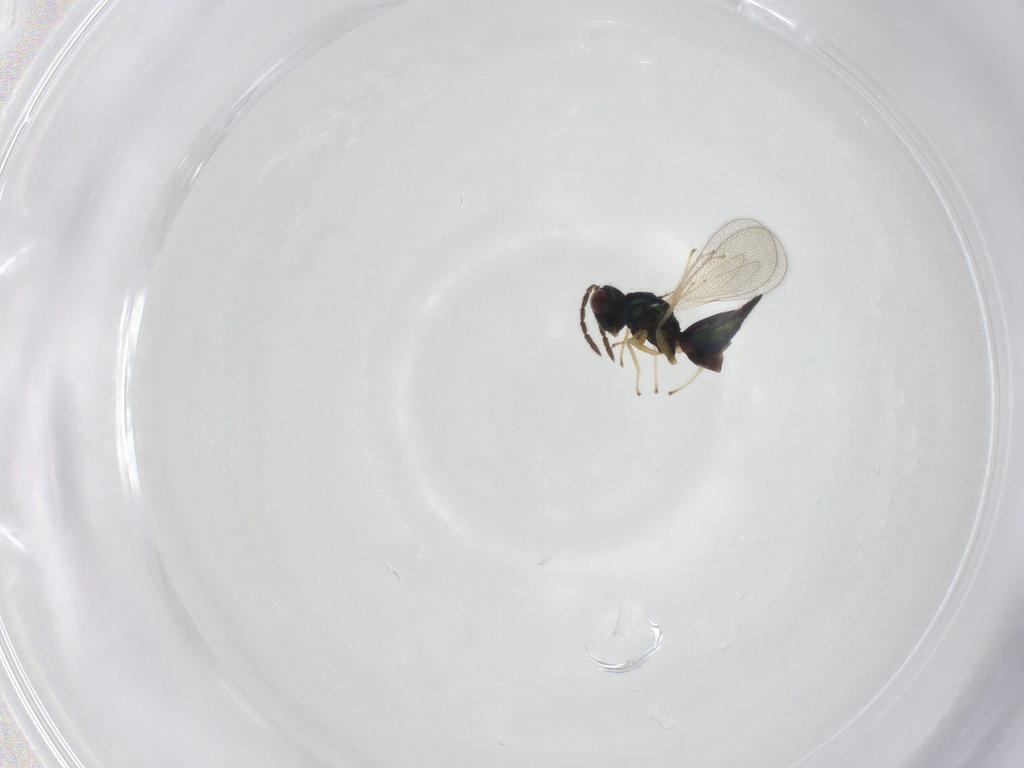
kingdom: Animalia
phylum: Arthropoda
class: Insecta
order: Hymenoptera
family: Eulophidae
